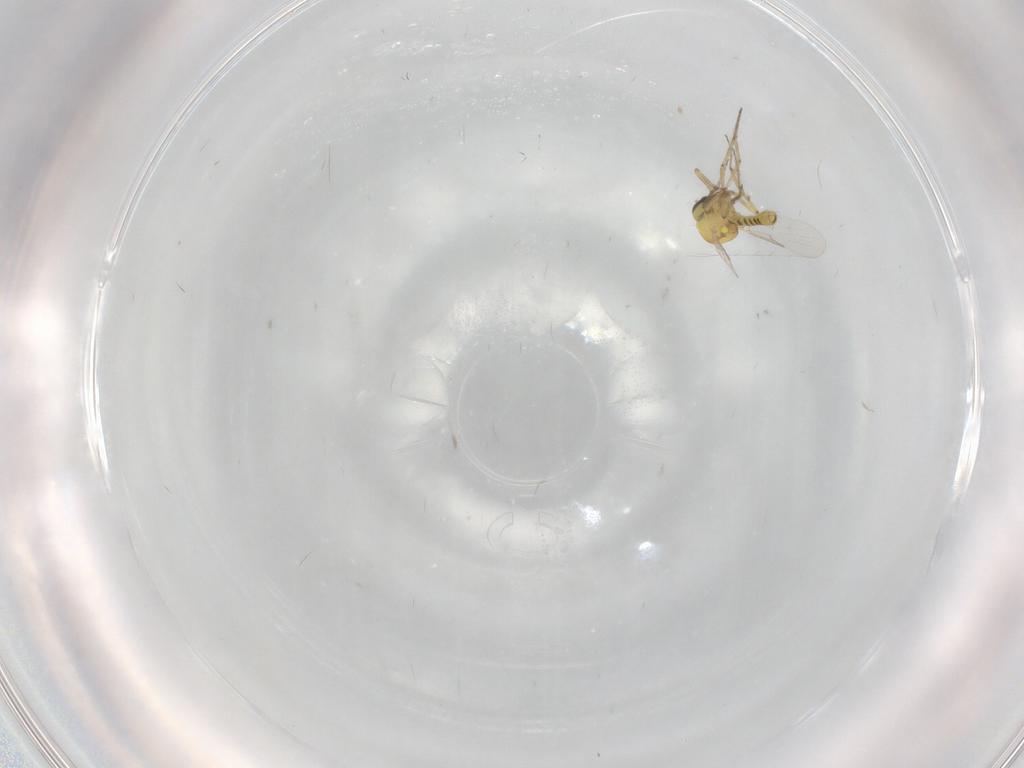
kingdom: Animalia
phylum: Arthropoda
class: Insecta
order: Diptera
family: Ceratopogonidae
